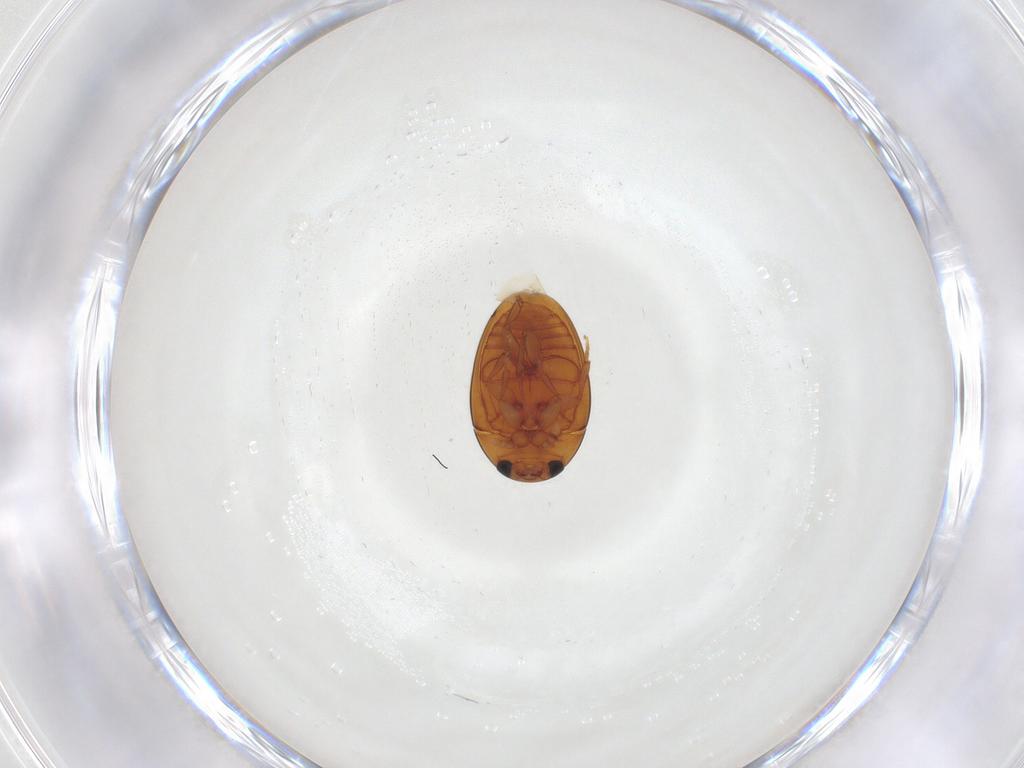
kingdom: Animalia
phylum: Arthropoda
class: Insecta
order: Coleoptera
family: Phalacridae
